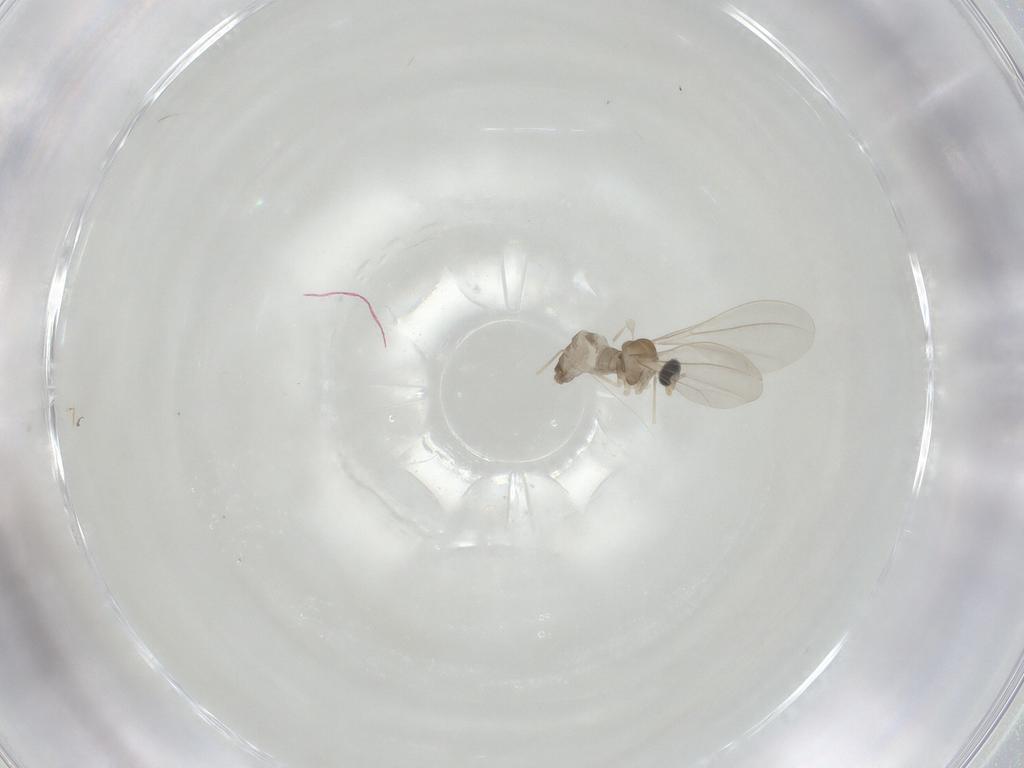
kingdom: Animalia
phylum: Arthropoda
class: Insecta
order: Diptera
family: Cecidomyiidae
